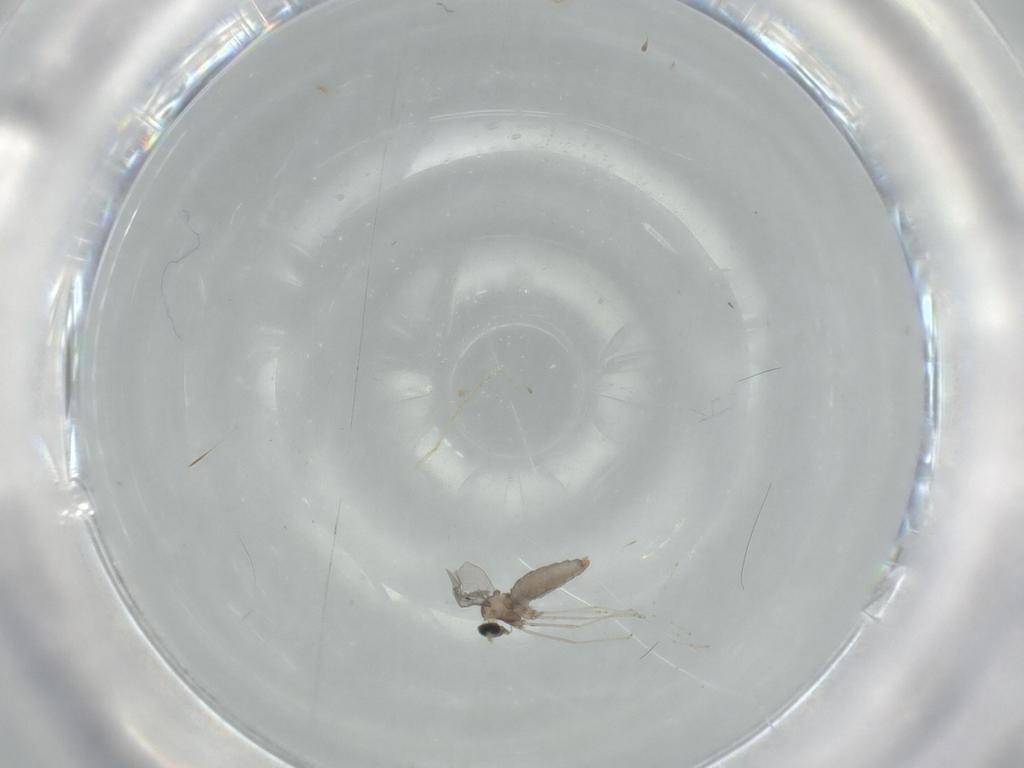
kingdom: Animalia
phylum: Arthropoda
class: Insecta
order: Diptera
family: Cecidomyiidae
